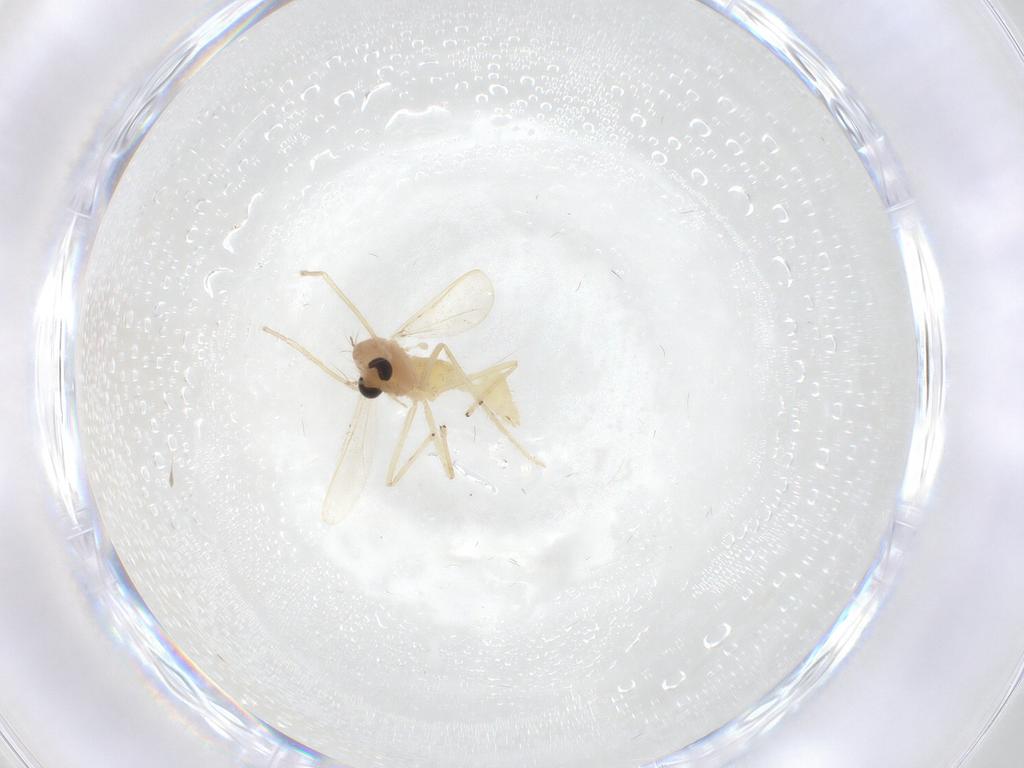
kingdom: Animalia
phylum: Arthropoda
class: Insecta
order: Diptera
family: Chironomidae
